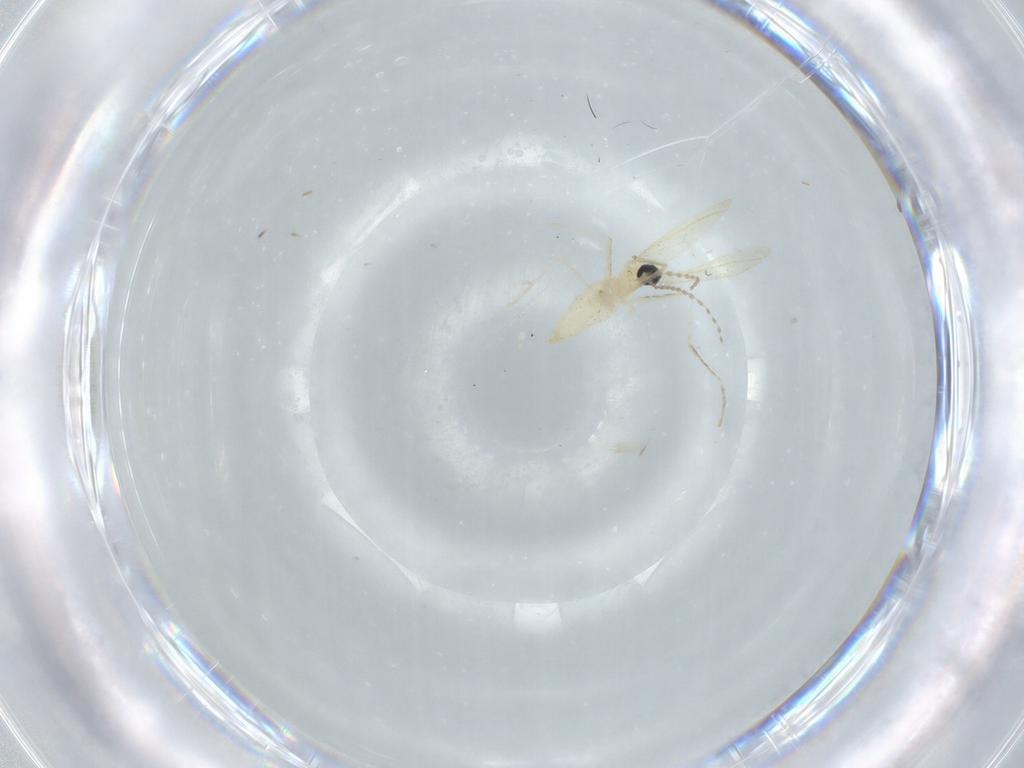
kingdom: Animalia
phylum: Arthropoda
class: Insecta
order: Diptera
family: Cecidomyiidae
